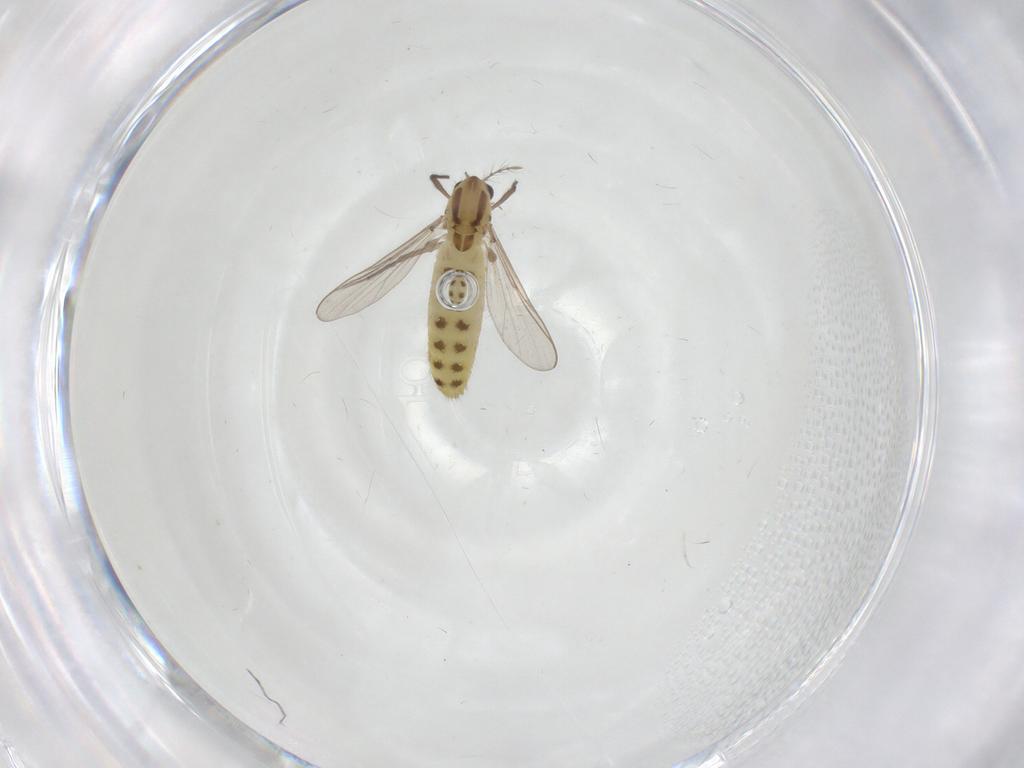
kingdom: Animalia
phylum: Arthropoda
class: Insecta
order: Diptera
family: Chironomidae
